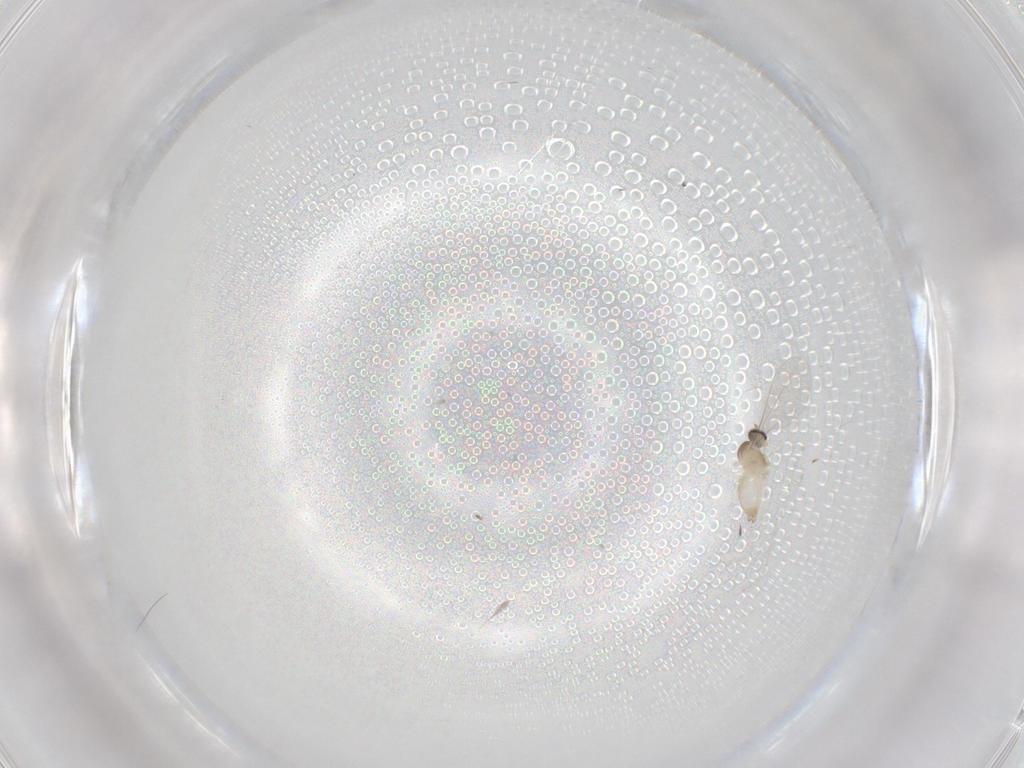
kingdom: Animalia
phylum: Arthropoda
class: Insecta
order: Diptera
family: Cecidomyiidae
